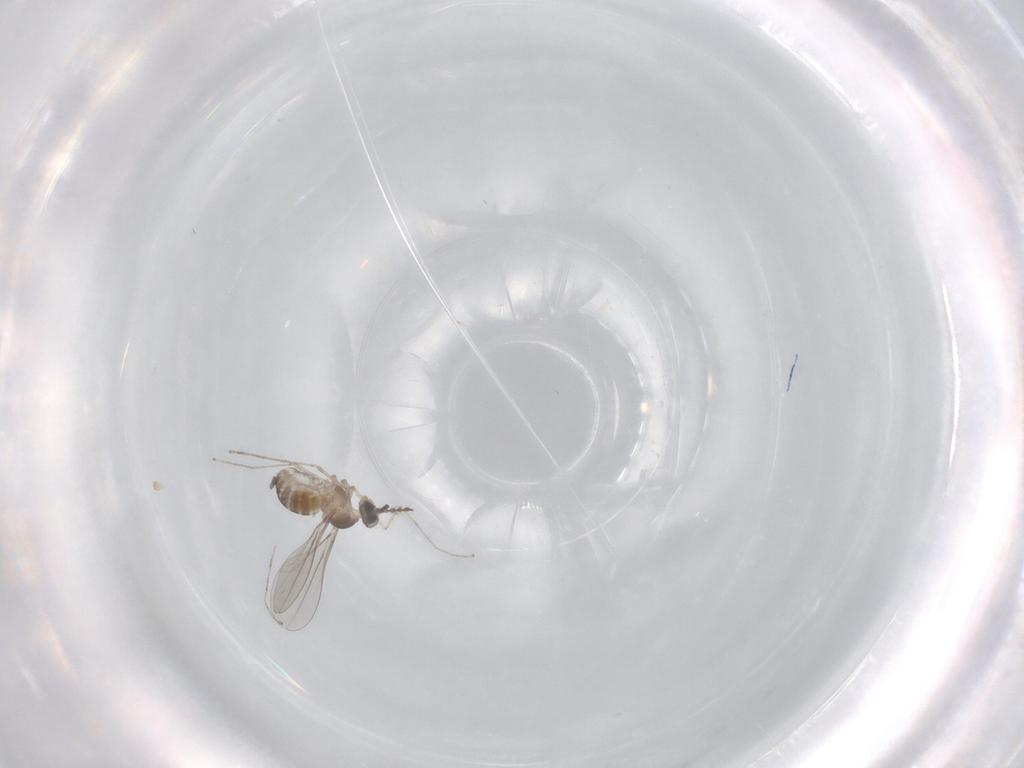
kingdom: Animalia
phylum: Arthropoda
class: Insecta
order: Diptera
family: Cecidomyiidae
